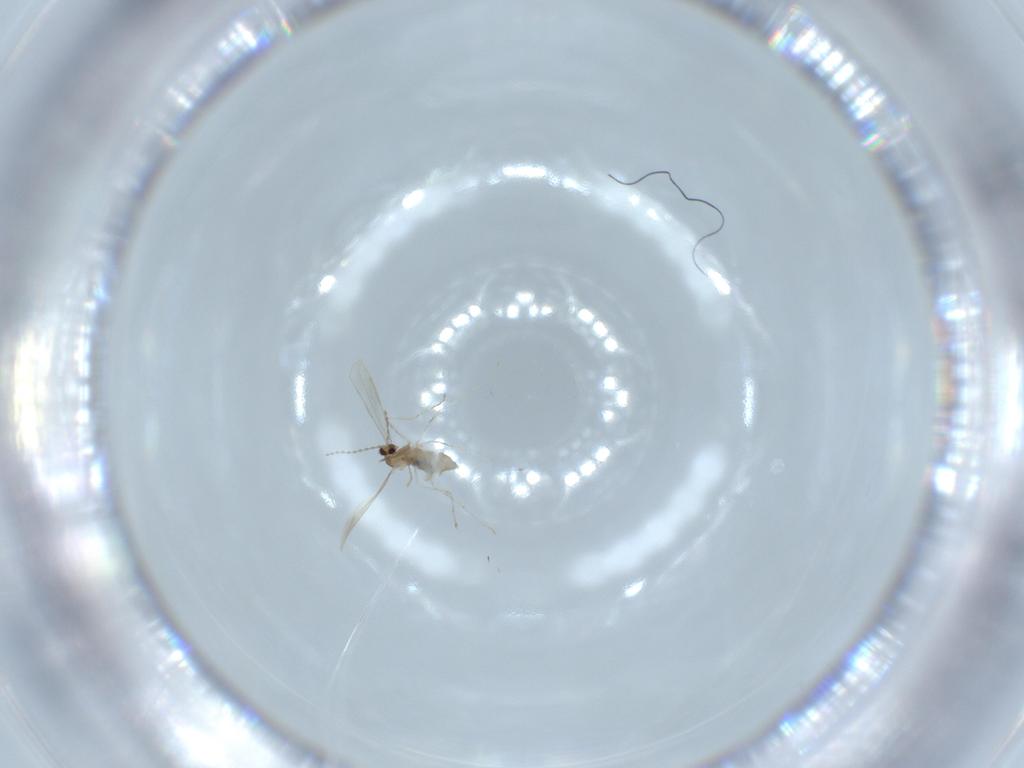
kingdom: Animalia
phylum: Arthropoda
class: Insecta
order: Diptera
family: Cecidomyiidae
